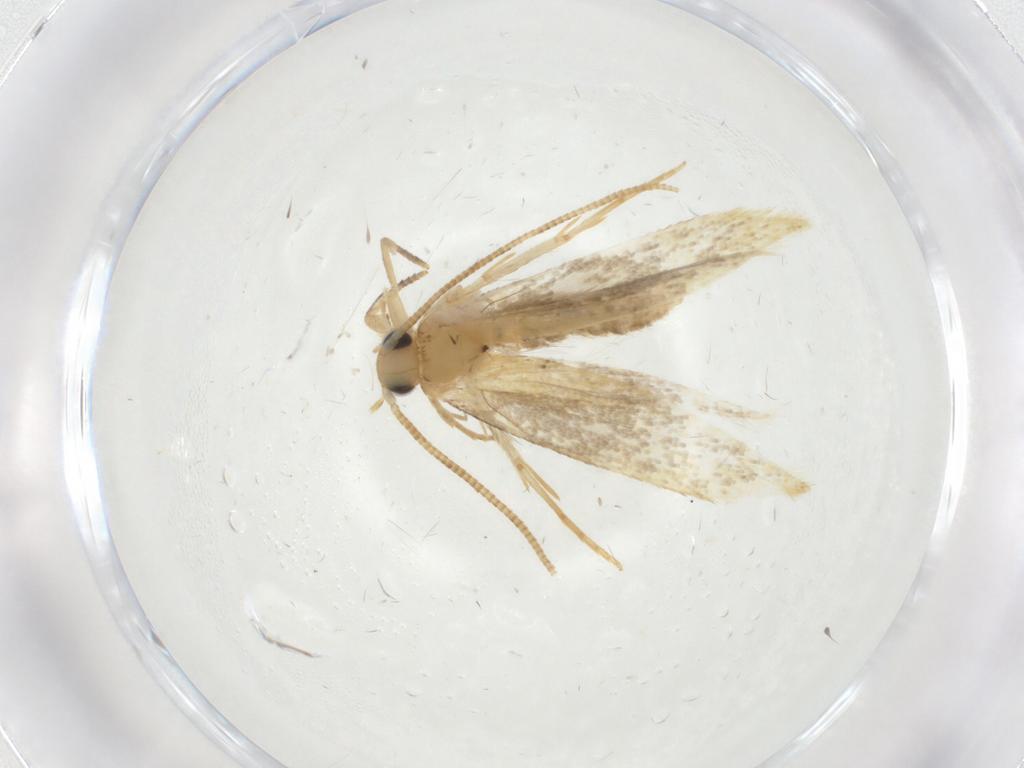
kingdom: Animalia
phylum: Arthropoda
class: Insecta
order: Lepidoptera
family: Tineidae
